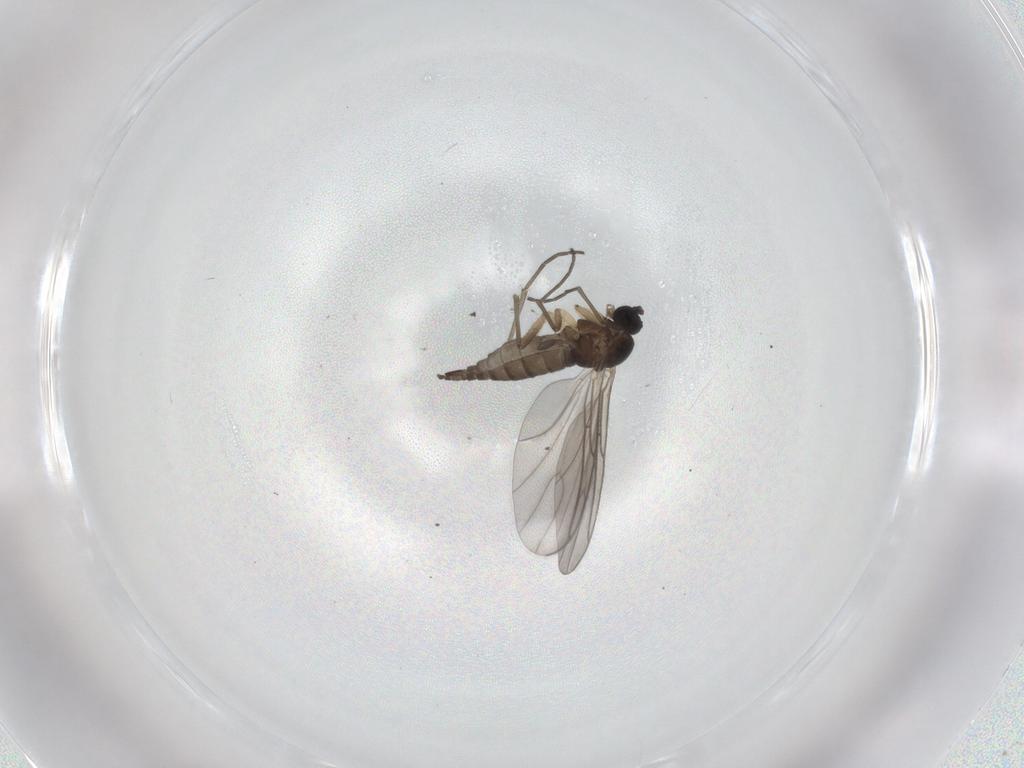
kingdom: Animalia
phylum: Arthropoda
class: Insecta
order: Diptera
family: Sciaridae
